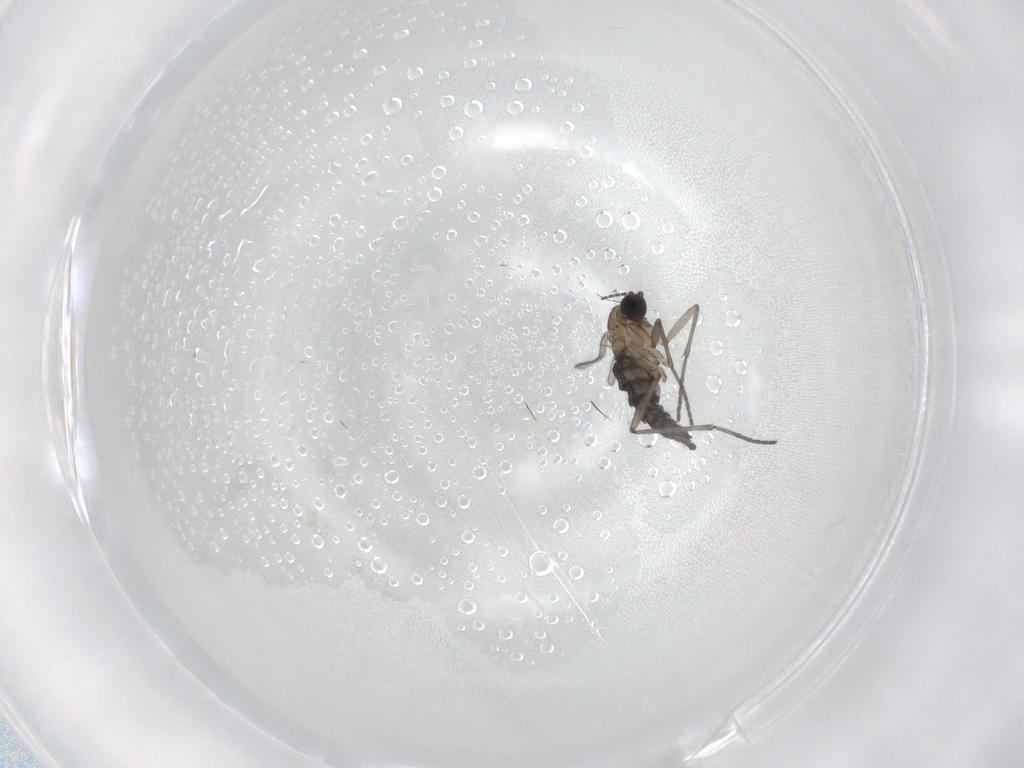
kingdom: Animalia
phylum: Arthropoda
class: Insecta
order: Diptera
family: Sciaridae
